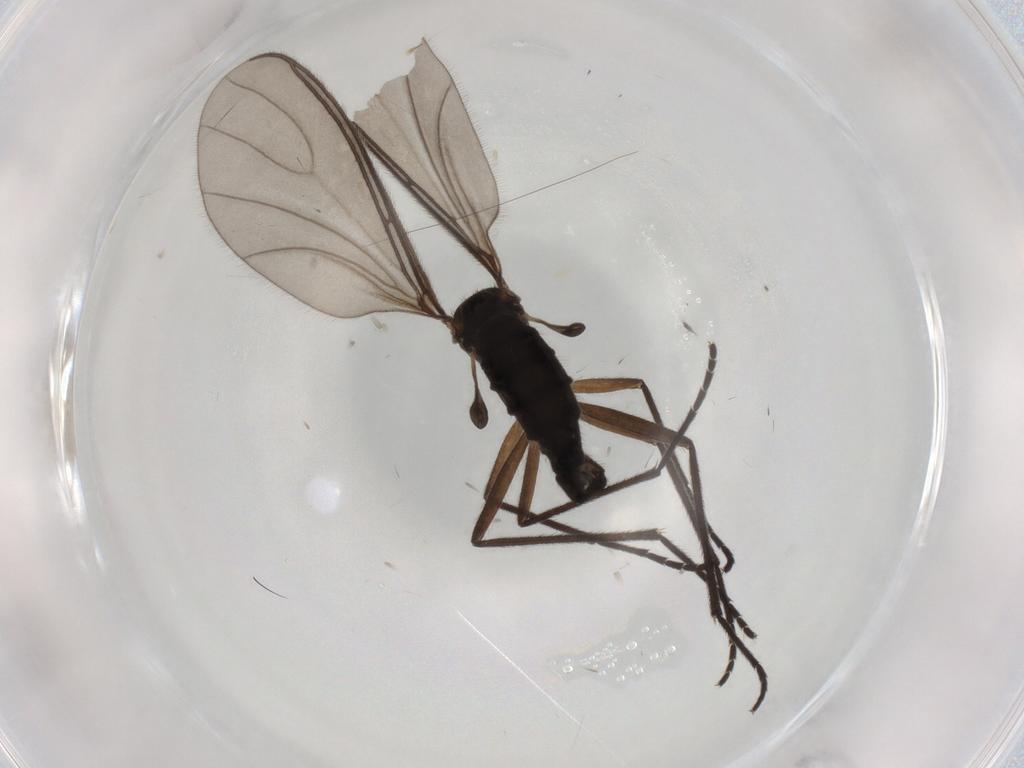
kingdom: Animalia
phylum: Arthropoda
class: Insecta
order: Diptera
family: Sciaridae
